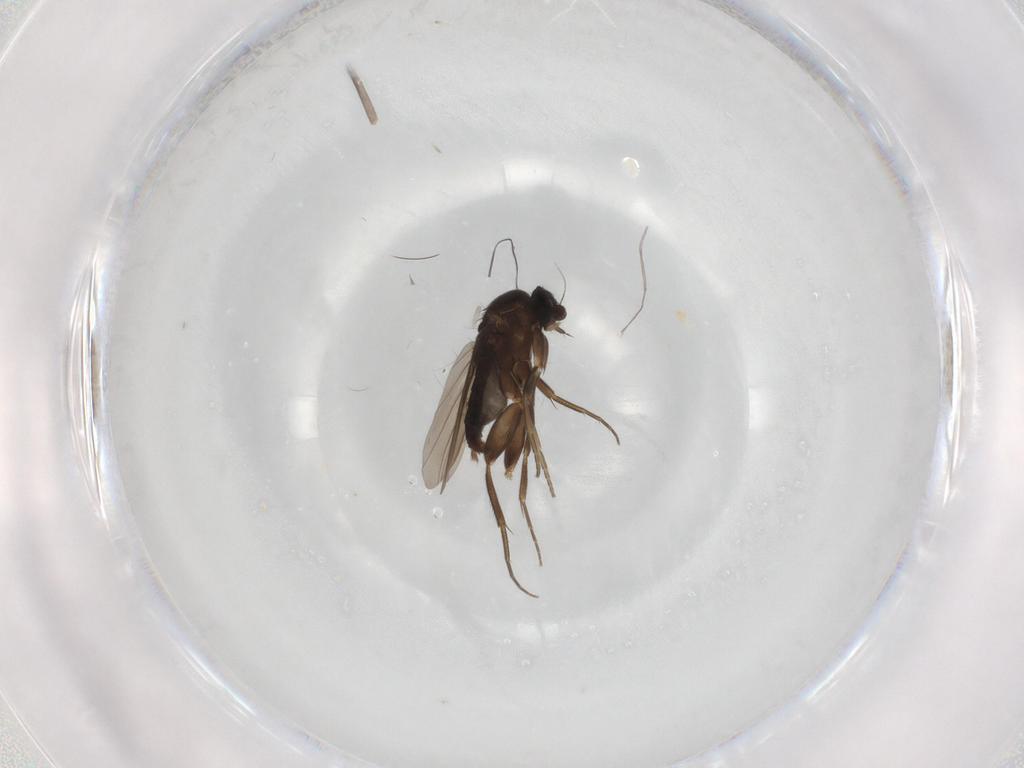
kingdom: Animalia
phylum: Arthropoda
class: Insecta
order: Diptera
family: Phoridae
